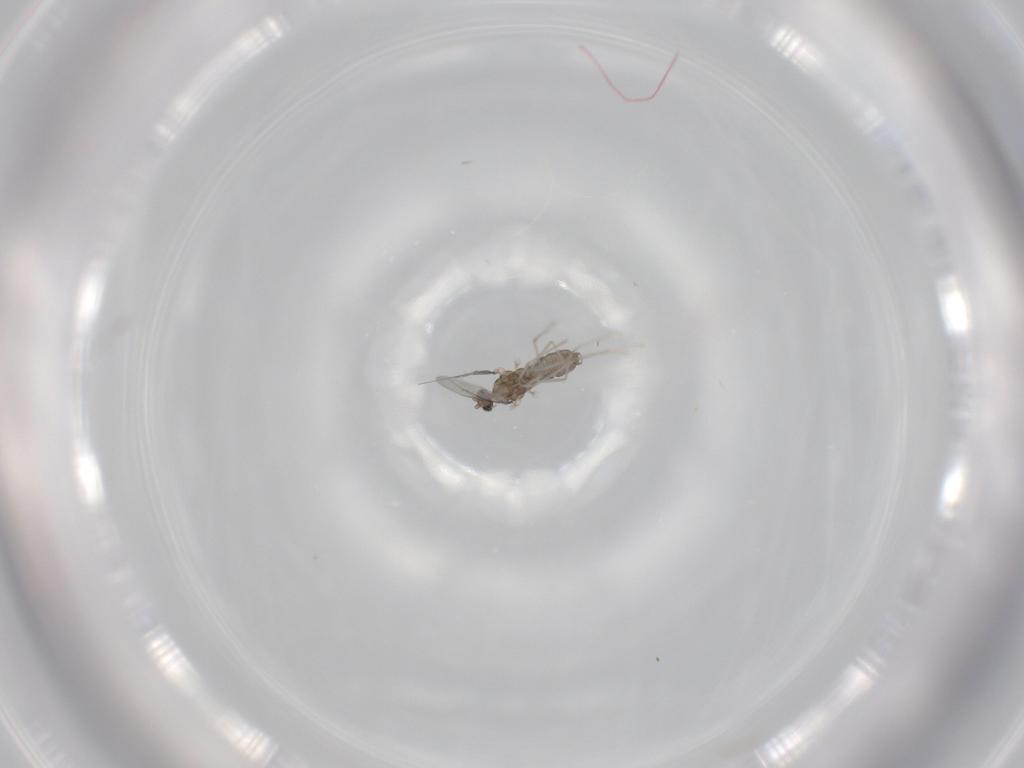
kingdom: Animalia
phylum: Arthropoda
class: Insecta
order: Diptera
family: Cecidomyiidae
